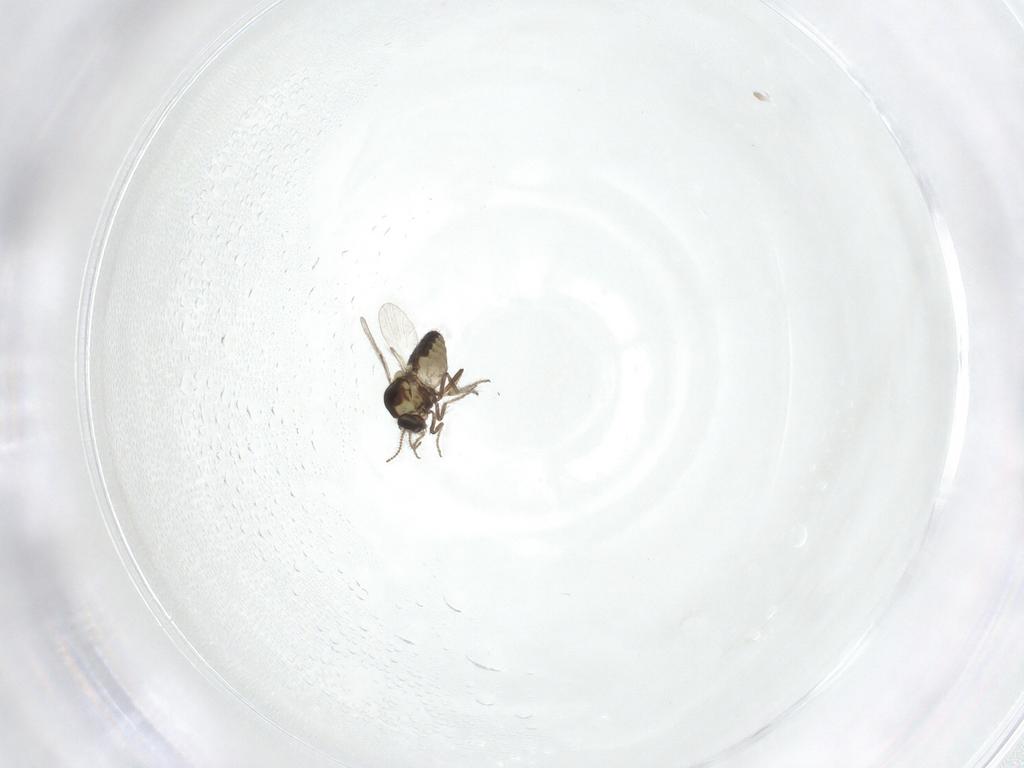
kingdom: Animalia
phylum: Arthropoda
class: Insecta
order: Diptera
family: Ceratopogonidae
